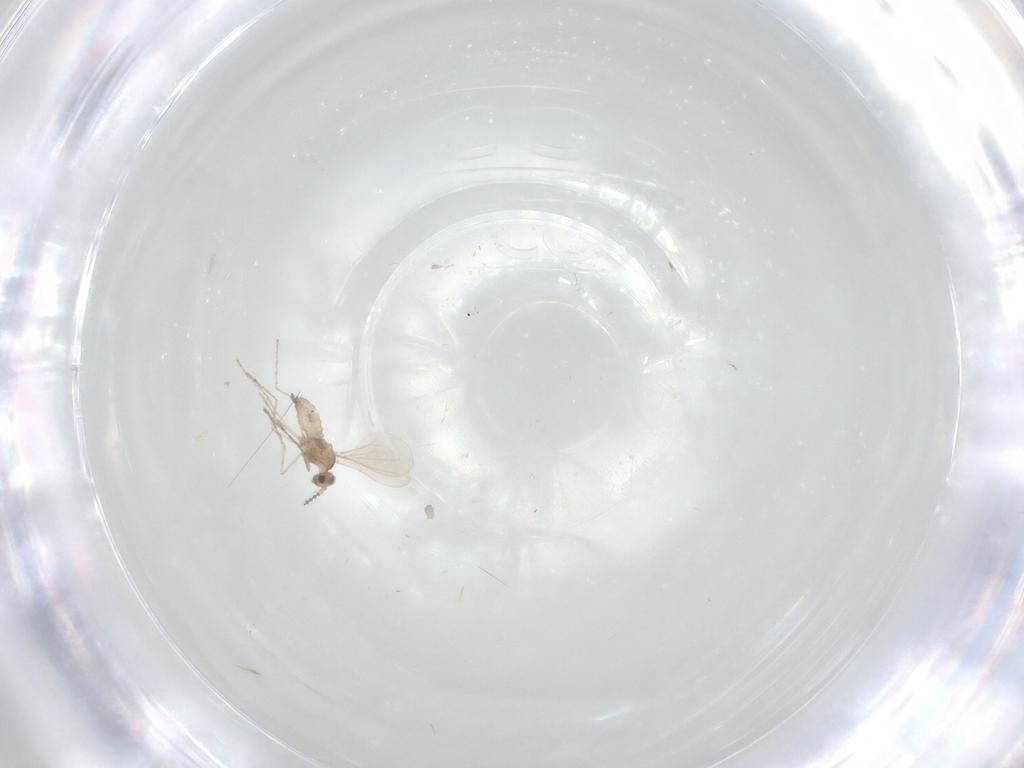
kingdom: Animalia
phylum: Arthropoda
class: Insecta
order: Diptera
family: Cecidomyiidae
